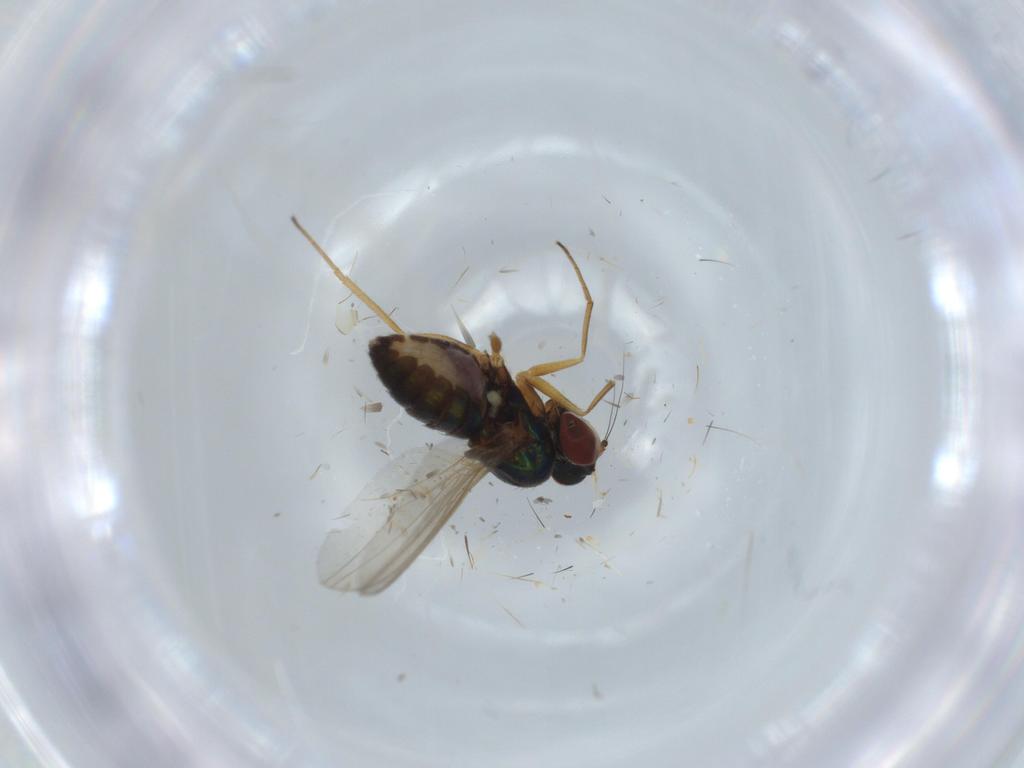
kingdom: Animalia
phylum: Arthropoda
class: Insecta
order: Diptera
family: Dolichopodidae
